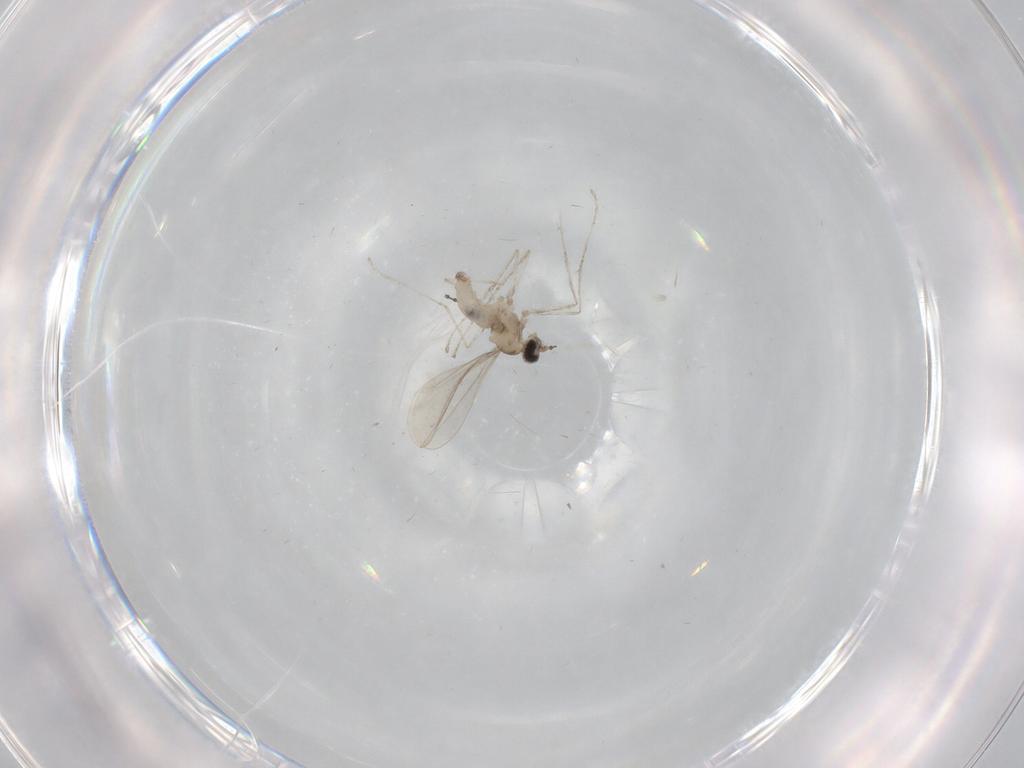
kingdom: Animalia
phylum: Arthropoda
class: Insecta
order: Diptera
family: Cecidomyiidae
